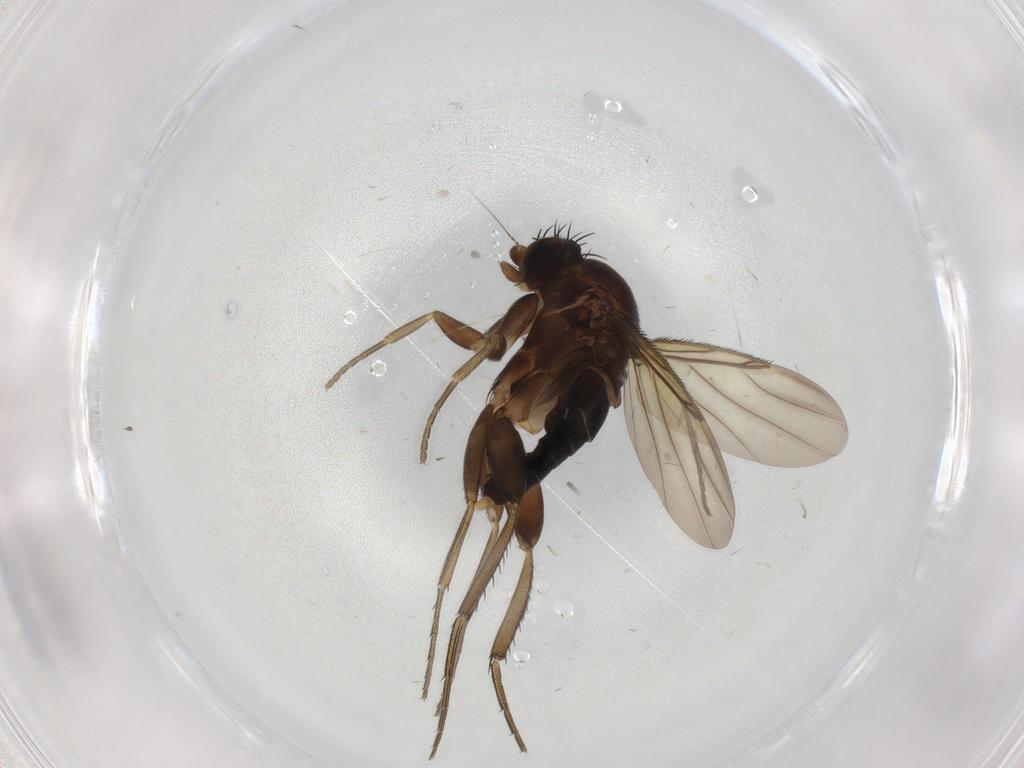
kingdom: Animalia
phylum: Arthropoda
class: Insecta
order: Diptera
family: Phoridae
